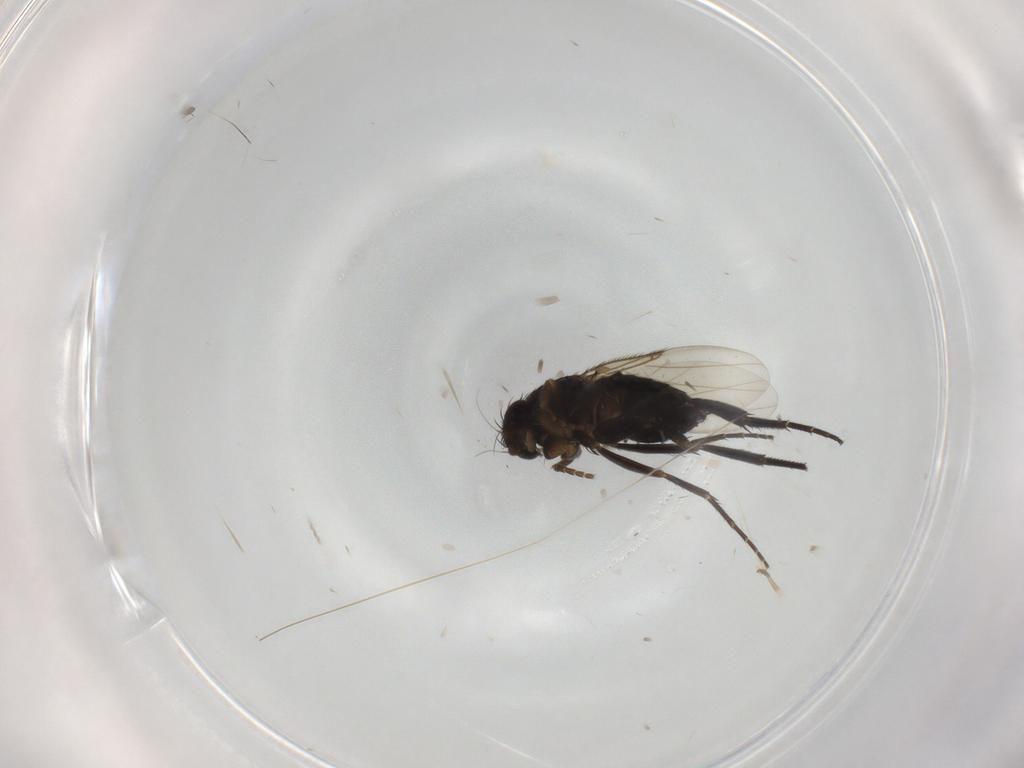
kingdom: Animalia
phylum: Arthropoda
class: Insecta
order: Diptera
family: Phoridae
